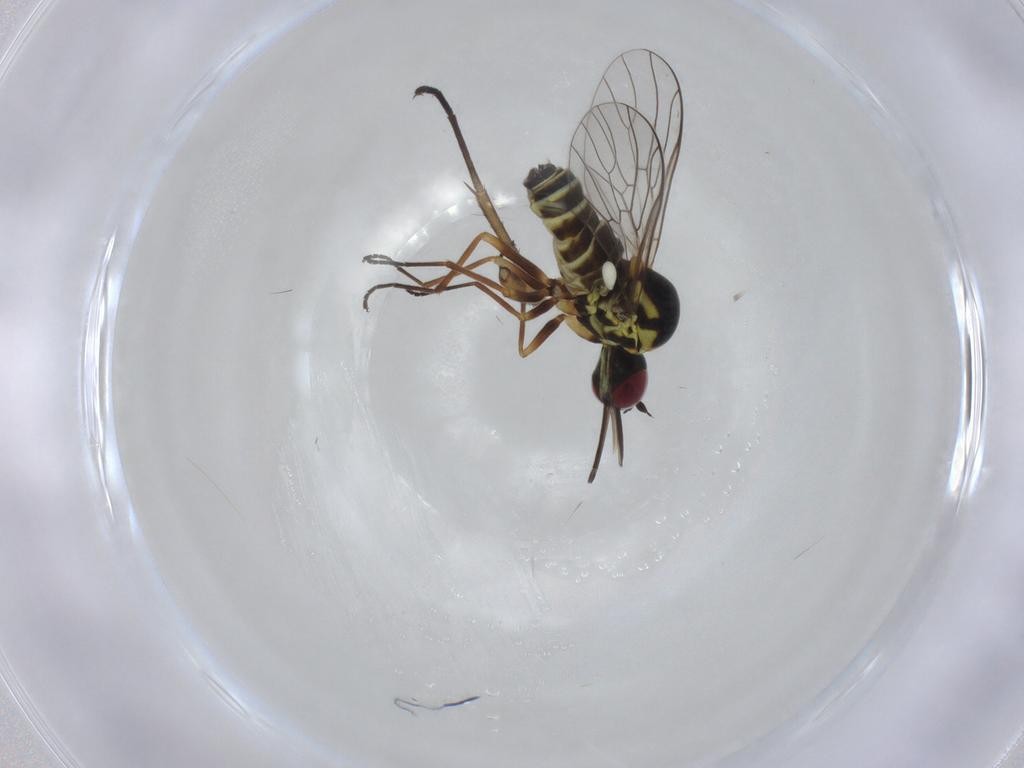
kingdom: Animalia
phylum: Arthropoda
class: Insecta
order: Diptera
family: Bombyliidae
